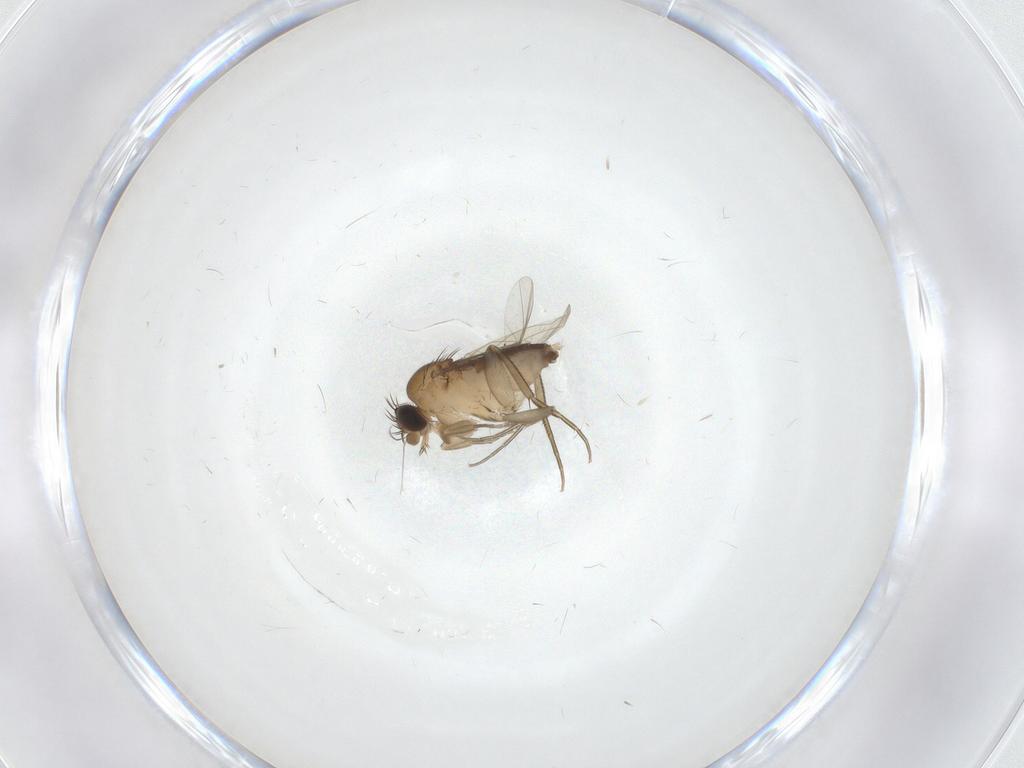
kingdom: Animalia
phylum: Arthropoda
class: Insecta
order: Diptera
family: Phoridae
